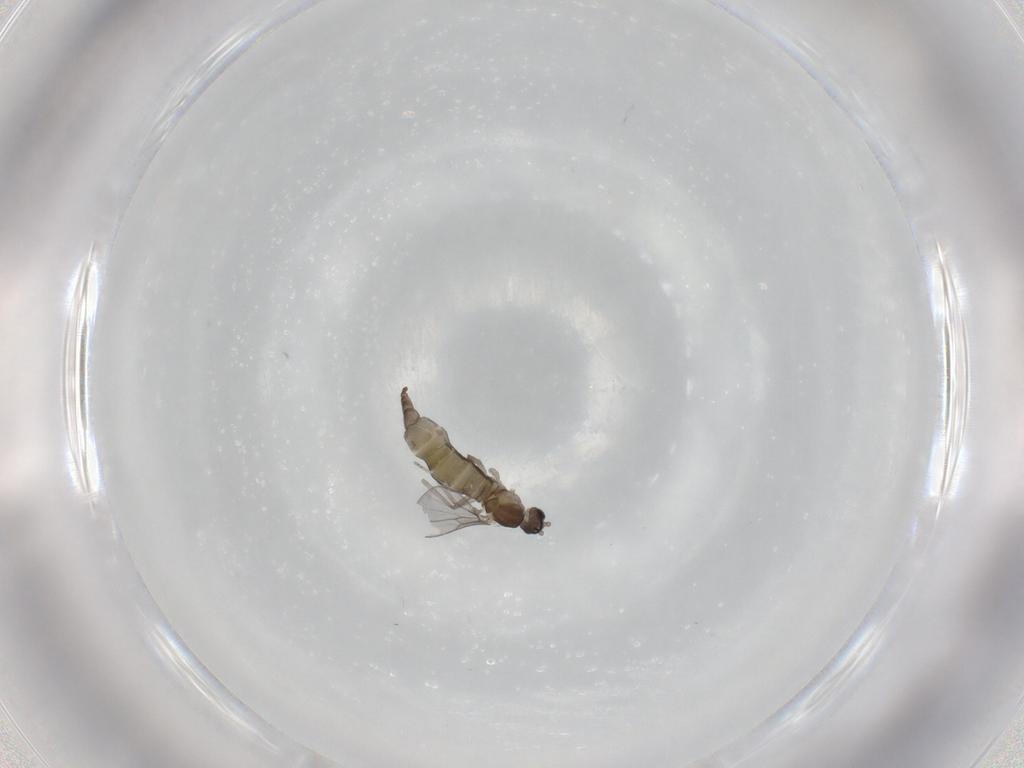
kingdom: Animalia
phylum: Arthropoda
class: Insecta
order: Diptera
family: Cecidomyiidae
